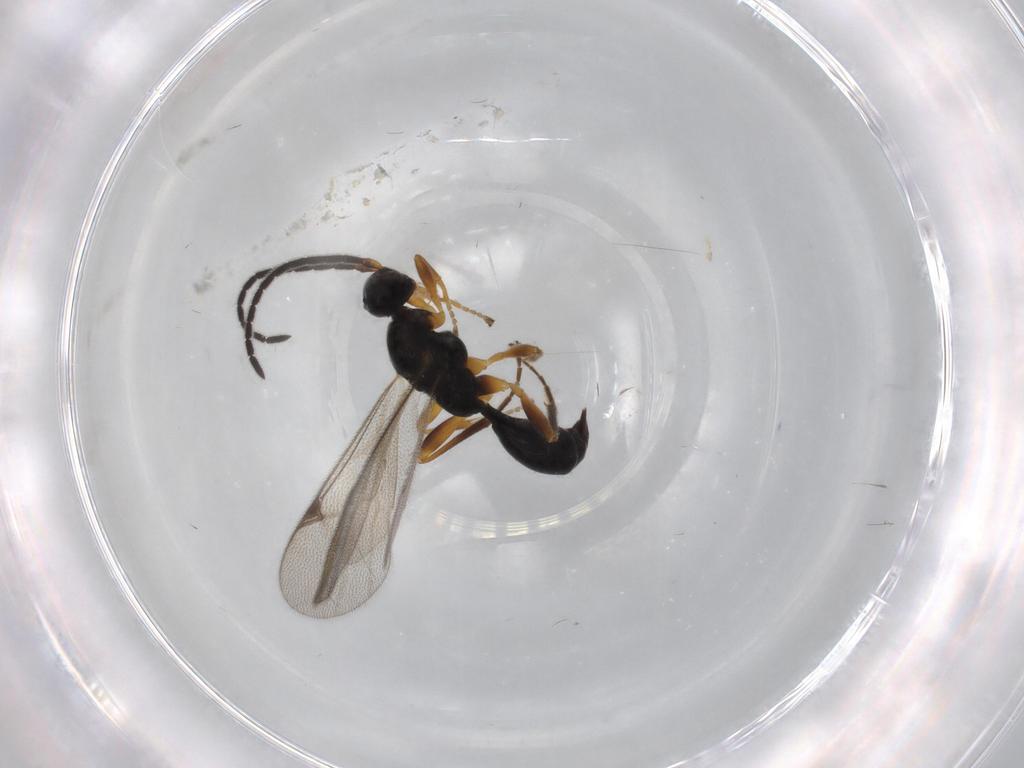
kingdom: Animalia
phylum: Arthropoda
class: Insecta
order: Hymenoptera
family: Proctotrupidae
